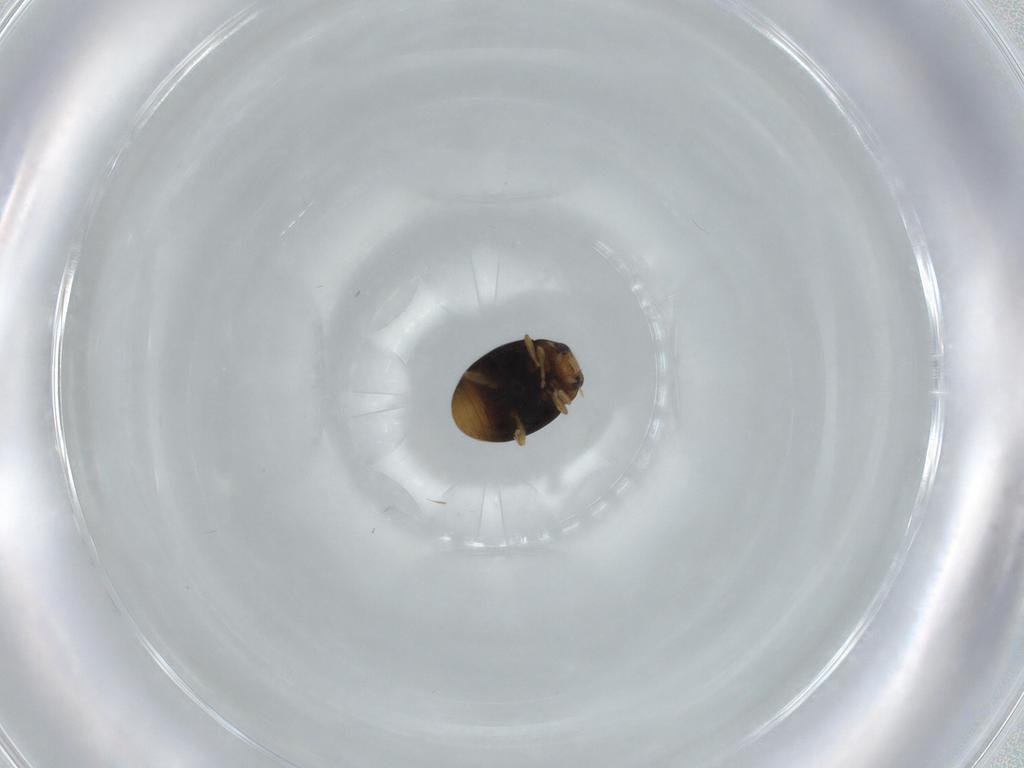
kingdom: Animalia
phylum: Arthropoda
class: Insecta
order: Coleoptera
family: Coccinellidae
